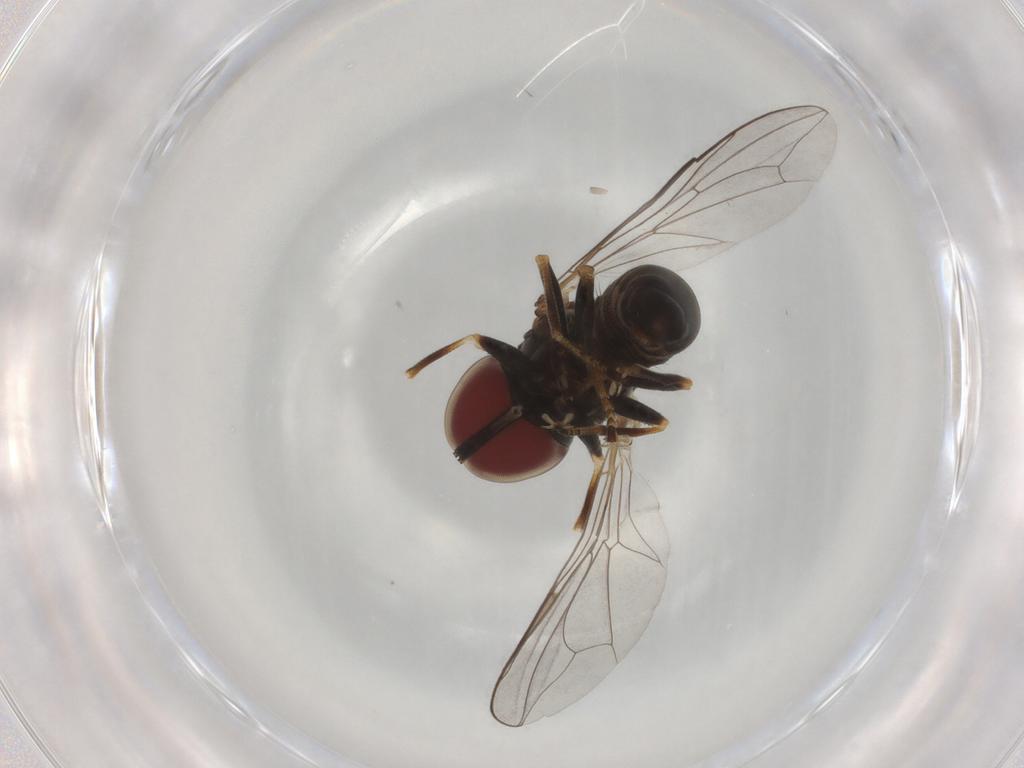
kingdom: Animalia
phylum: Arthropoda
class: Insecta
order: Diptera
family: Pipunculidae
